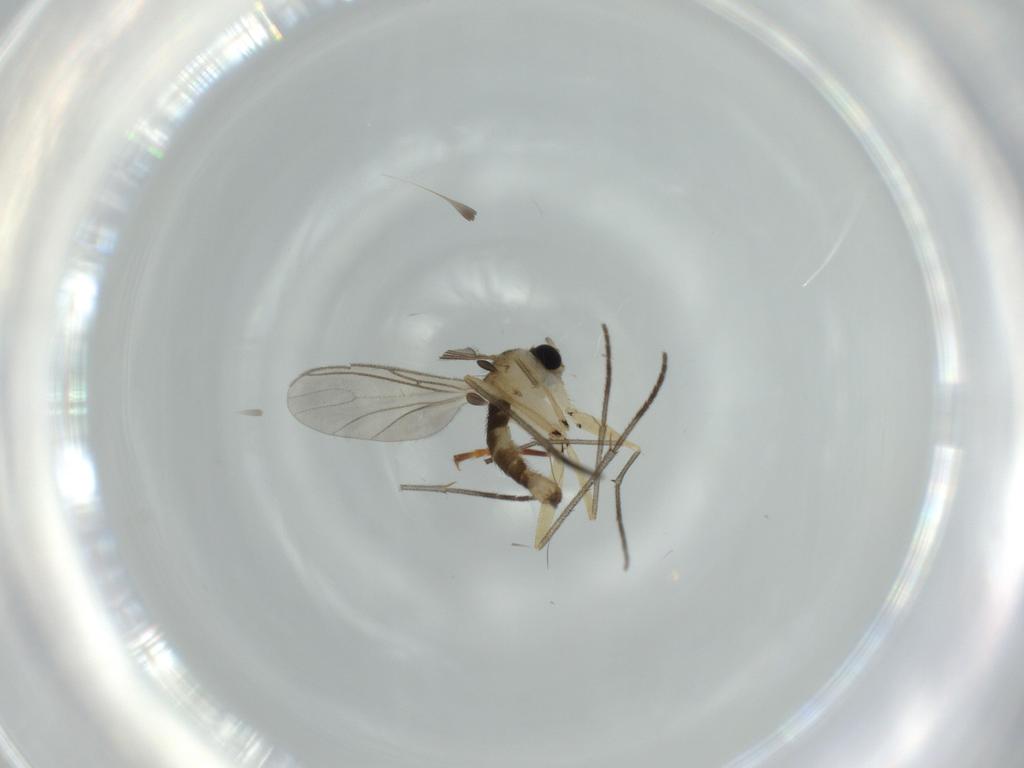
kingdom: Animalia
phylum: Arthropoda
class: Insecta
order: Diptera
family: Sciaridae
